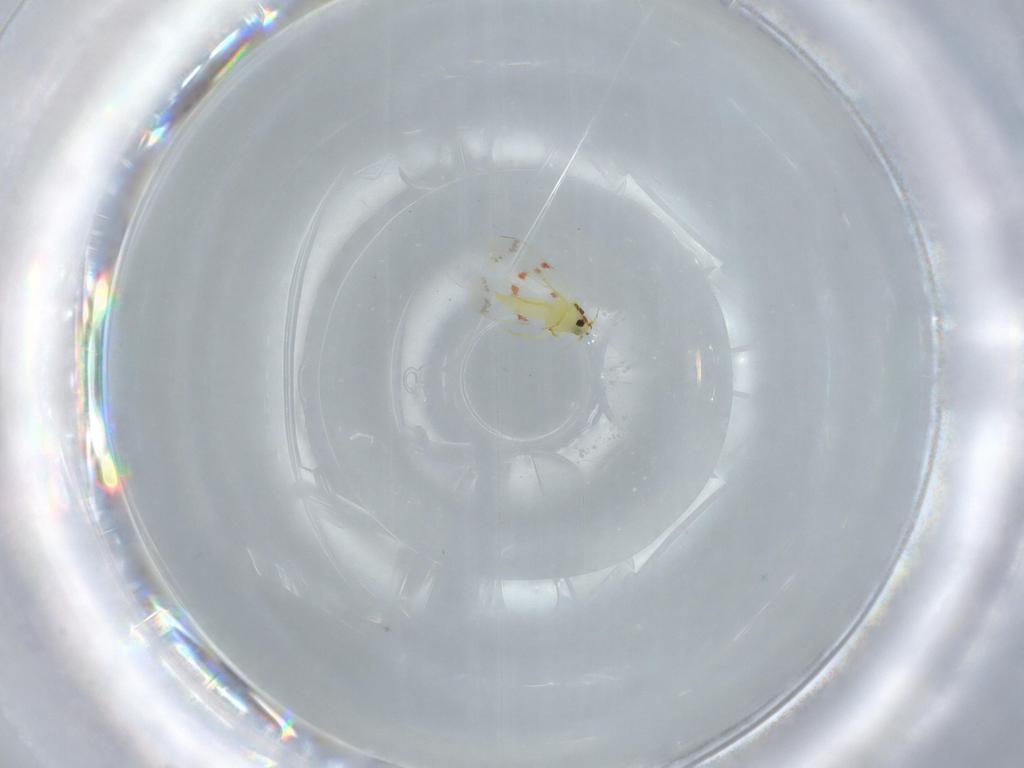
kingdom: Animalia
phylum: Arthropoda
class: Insecta
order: Hemiptera
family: Aleyrodidae
